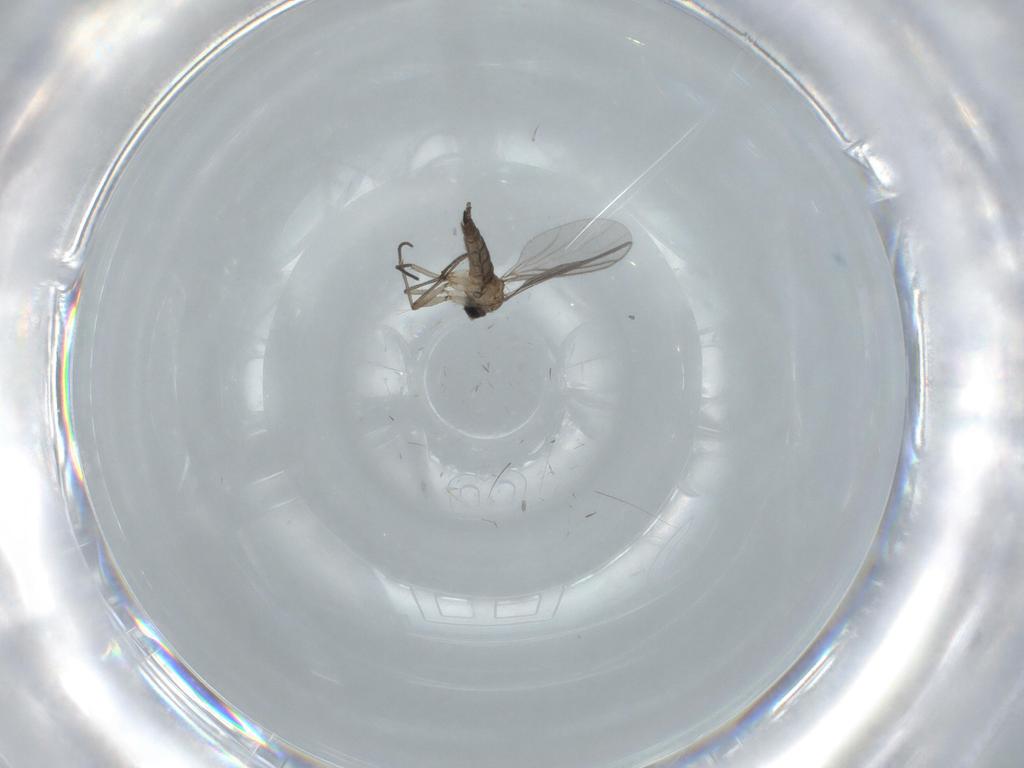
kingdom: Animalia
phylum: Arthropoda
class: Insecta
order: Diptera
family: Sciaridae
